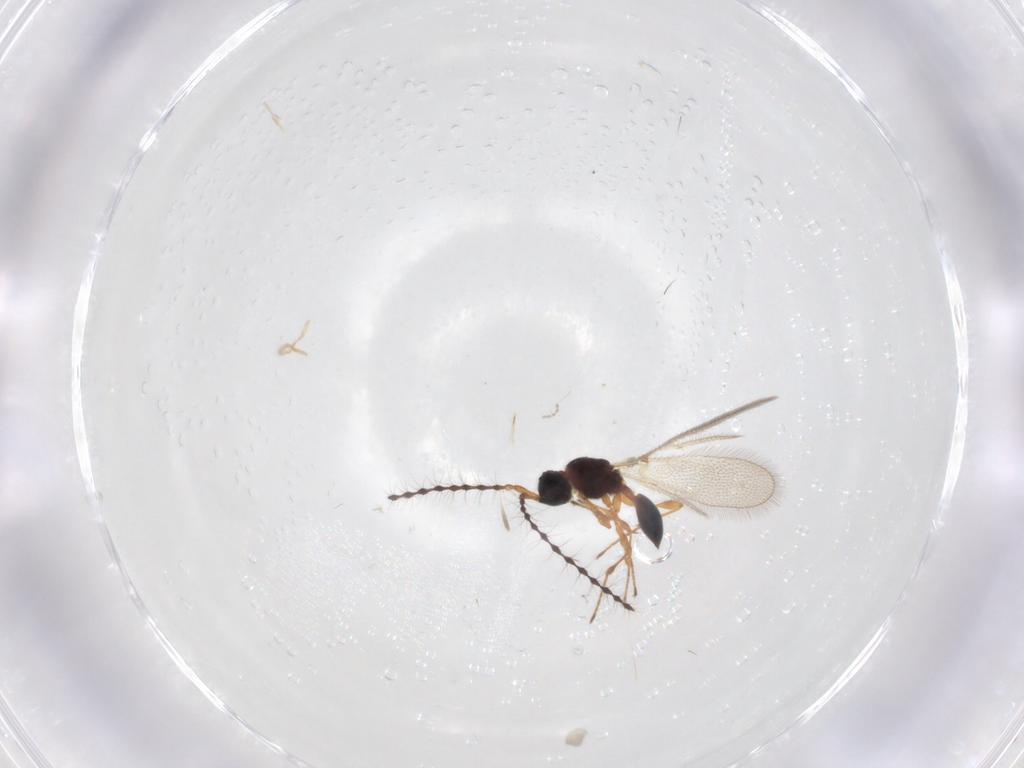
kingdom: Animalia
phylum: Arthropoda
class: Insecta
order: Hymenoptera
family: Diapriidae
